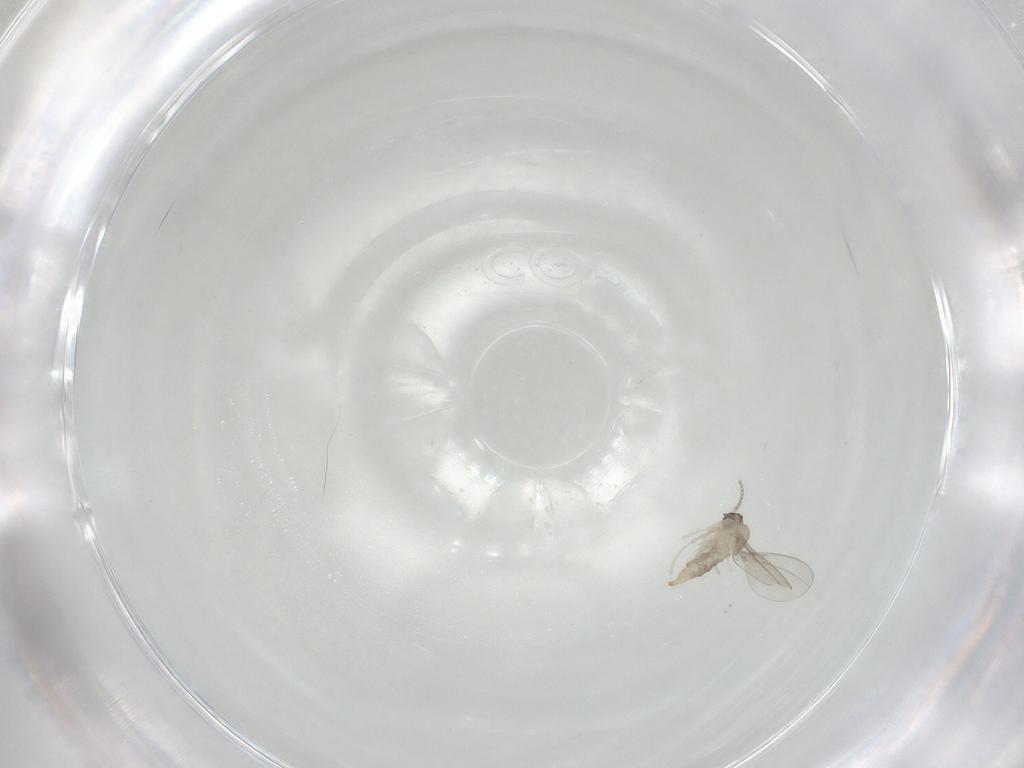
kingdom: Animalia
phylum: Arthropoda
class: Insecta
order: Diptera
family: Cecidomyiidae
